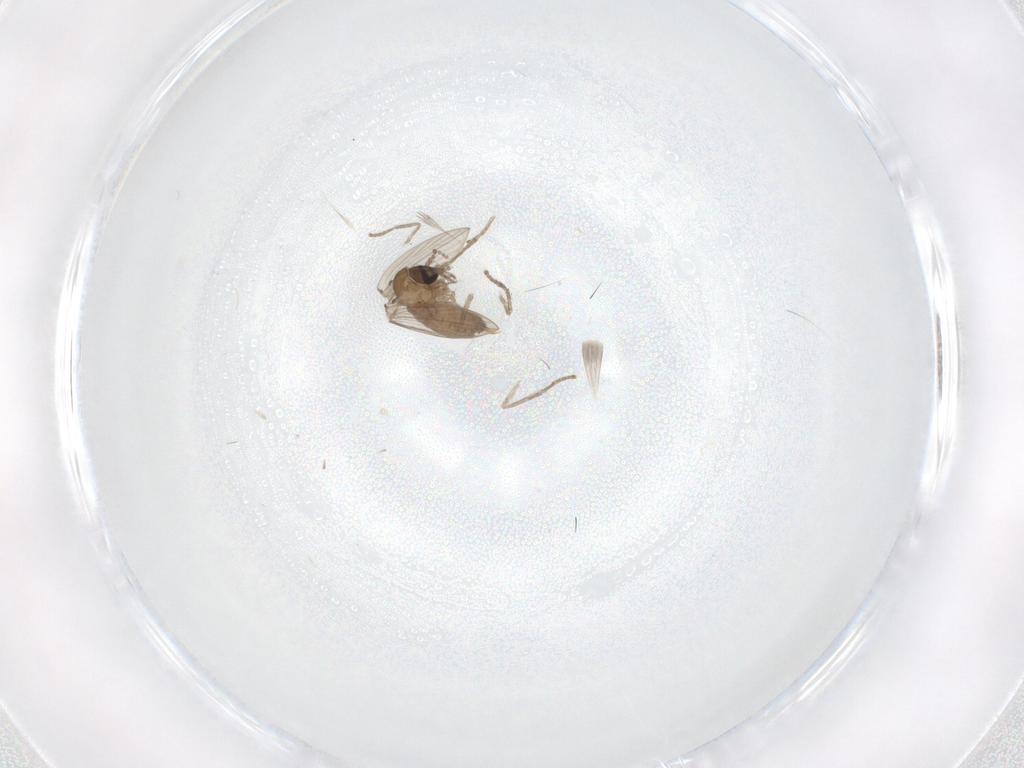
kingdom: Animalia
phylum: Arthropoda
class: Insecta
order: Diptera
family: Psychodidae
